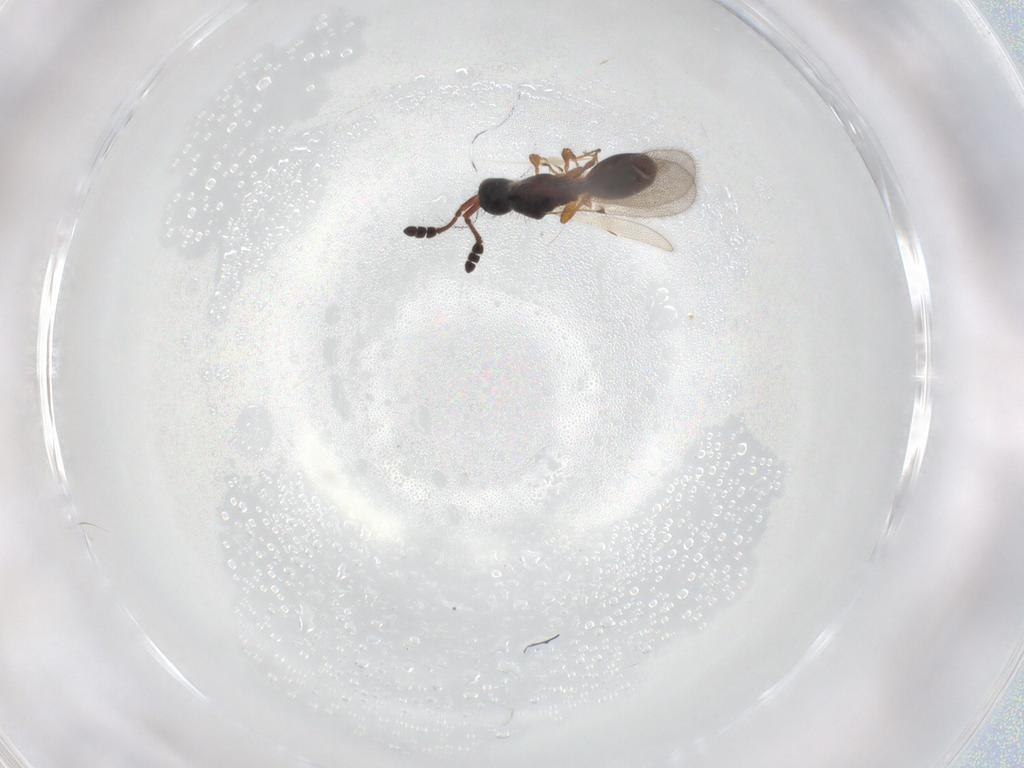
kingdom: Animalia
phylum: Arthropoda
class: Insecta
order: Hymenoptera
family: Diapriidae
